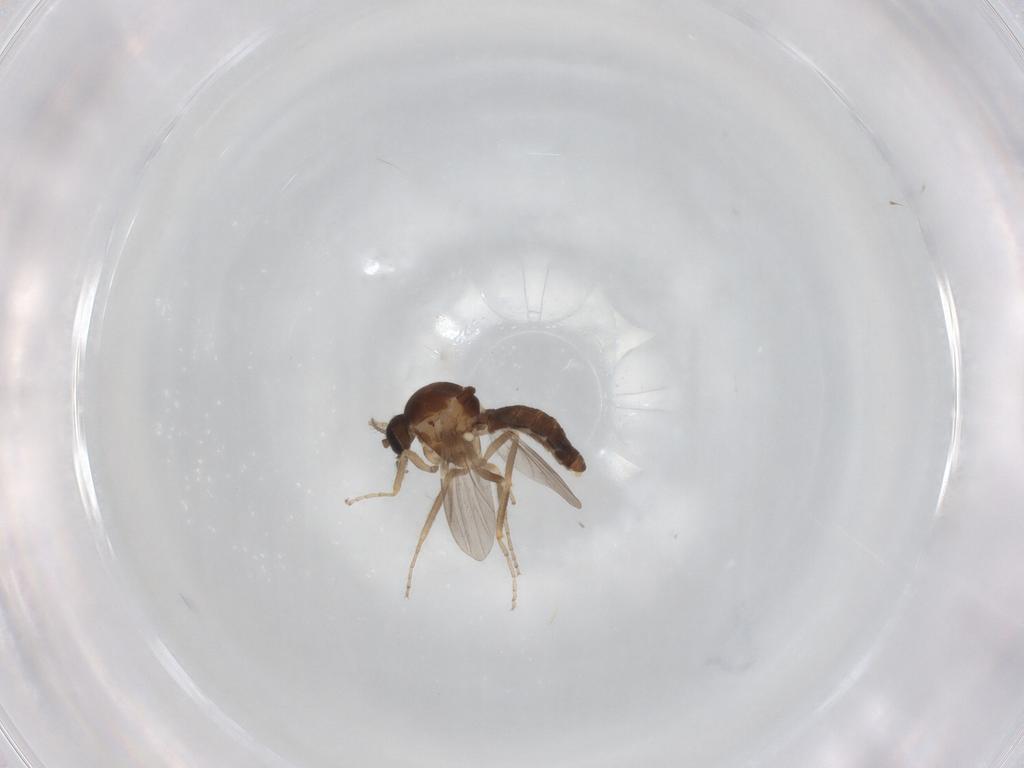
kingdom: Animalia
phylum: Arthropoda
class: Insecta
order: Diptera
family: Ceratopogonidae
